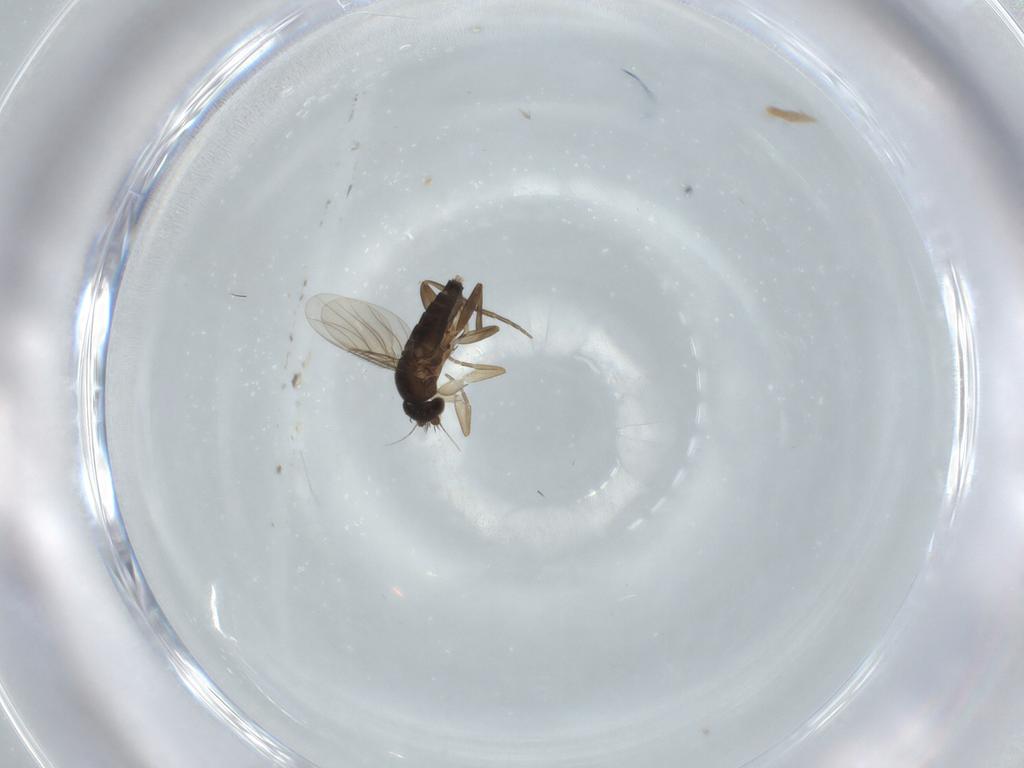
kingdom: Animalia
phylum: Arthropoda
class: Insecta
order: Diptera
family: Phoridae
